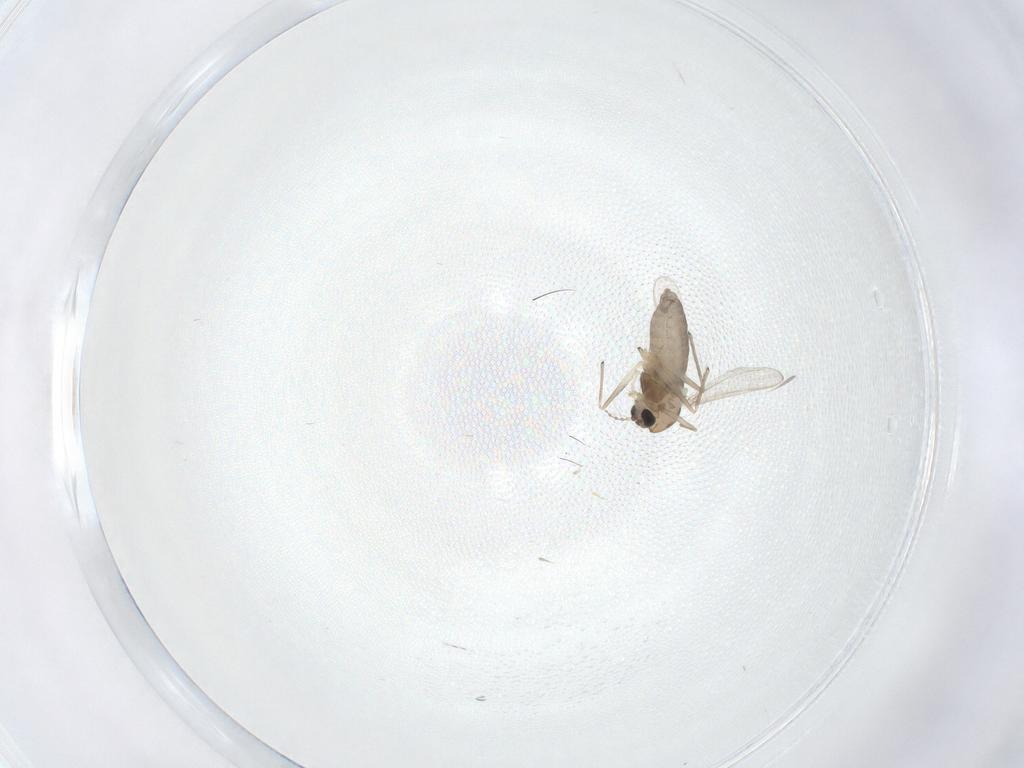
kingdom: Animalia
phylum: Arthropoda
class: Insecta
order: Diptera
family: Chironomidae
